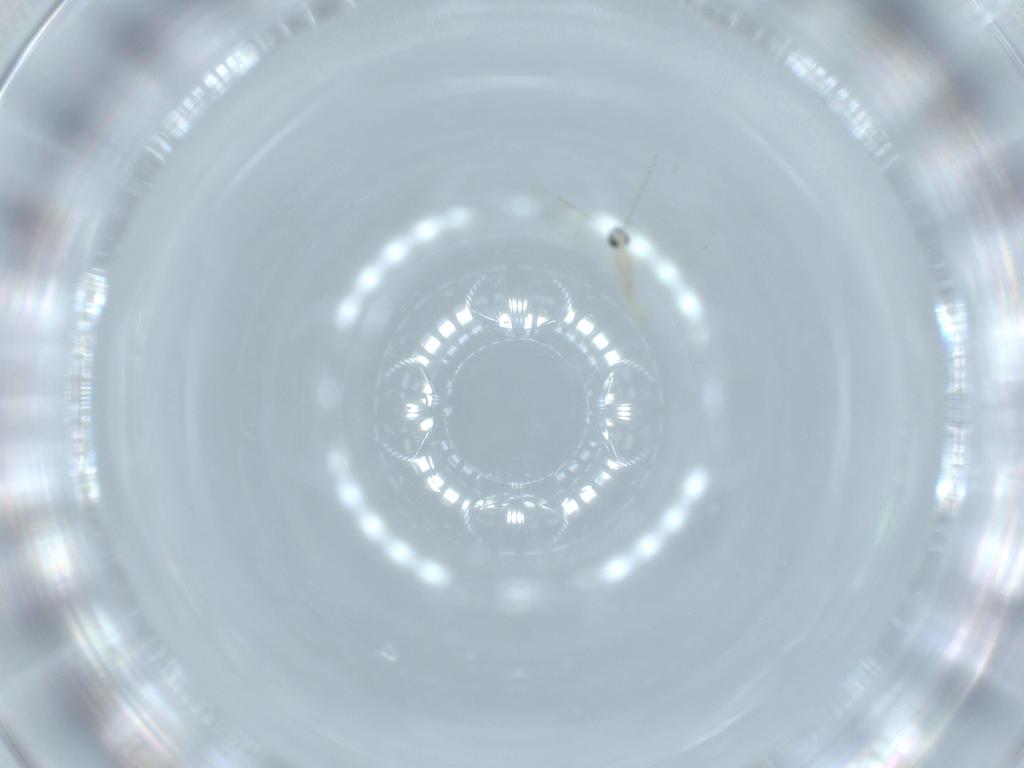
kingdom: Animalia
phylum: Arthropoda
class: Insecta
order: Diptera
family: Cecidomyiidae
